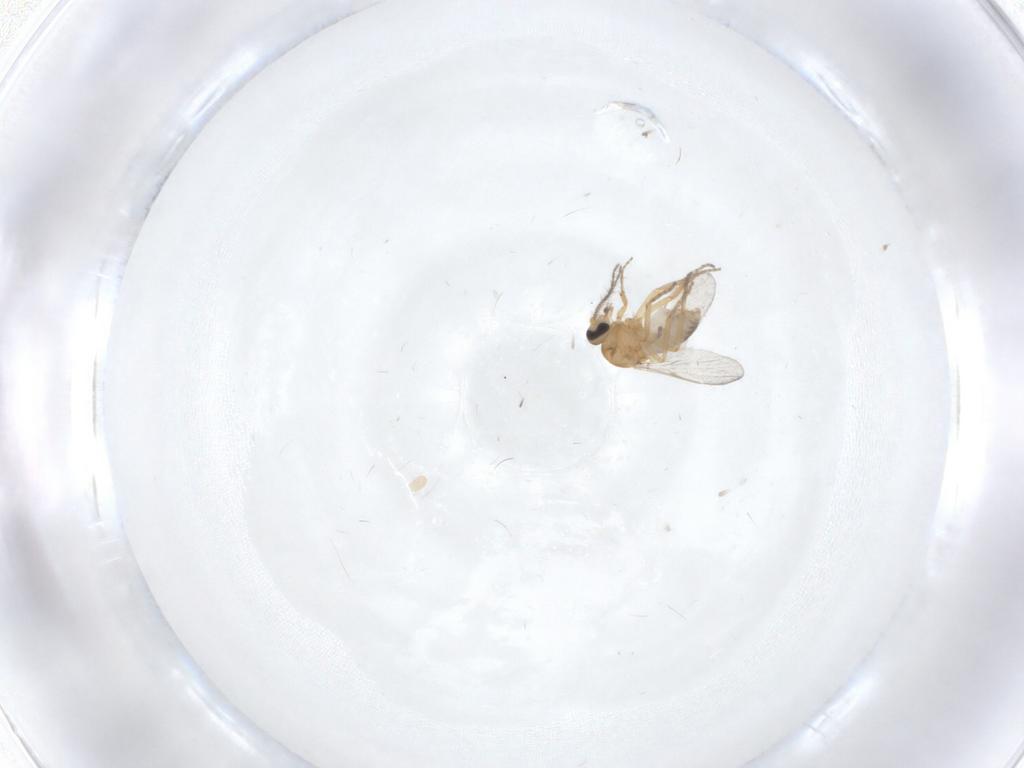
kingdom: Animalia
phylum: Arthropoda
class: Insecta
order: Diptera
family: Ceratopogonidae
